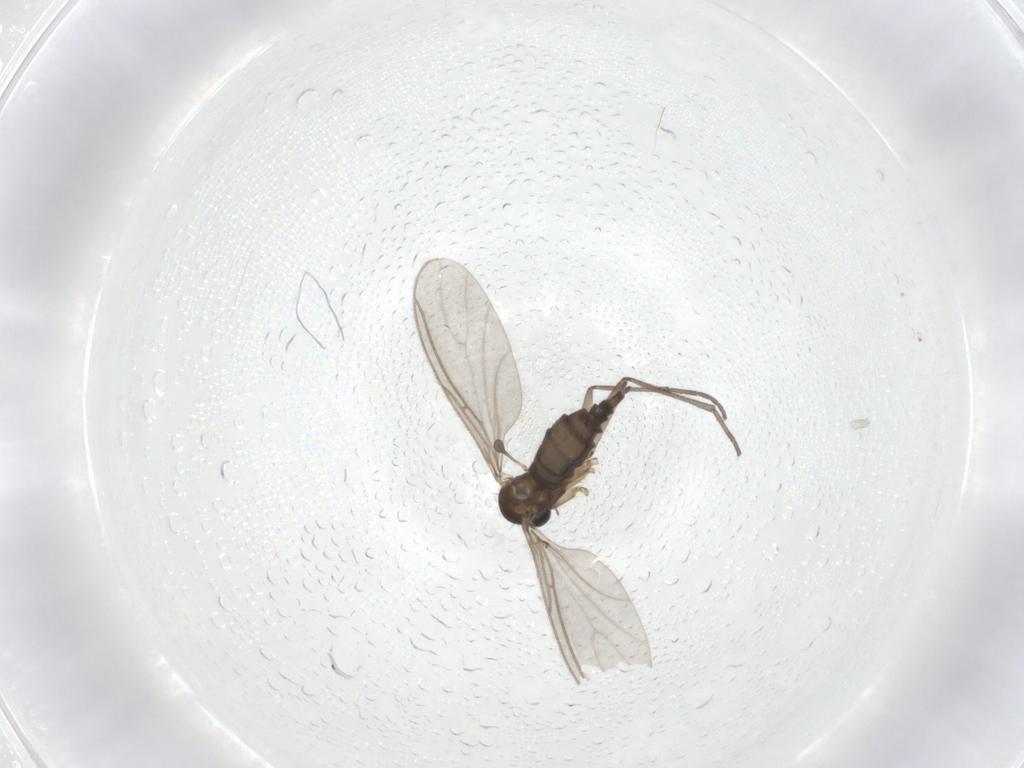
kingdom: Animalia
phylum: Arthropoda
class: Insecta
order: Diptera
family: Sciaridae
